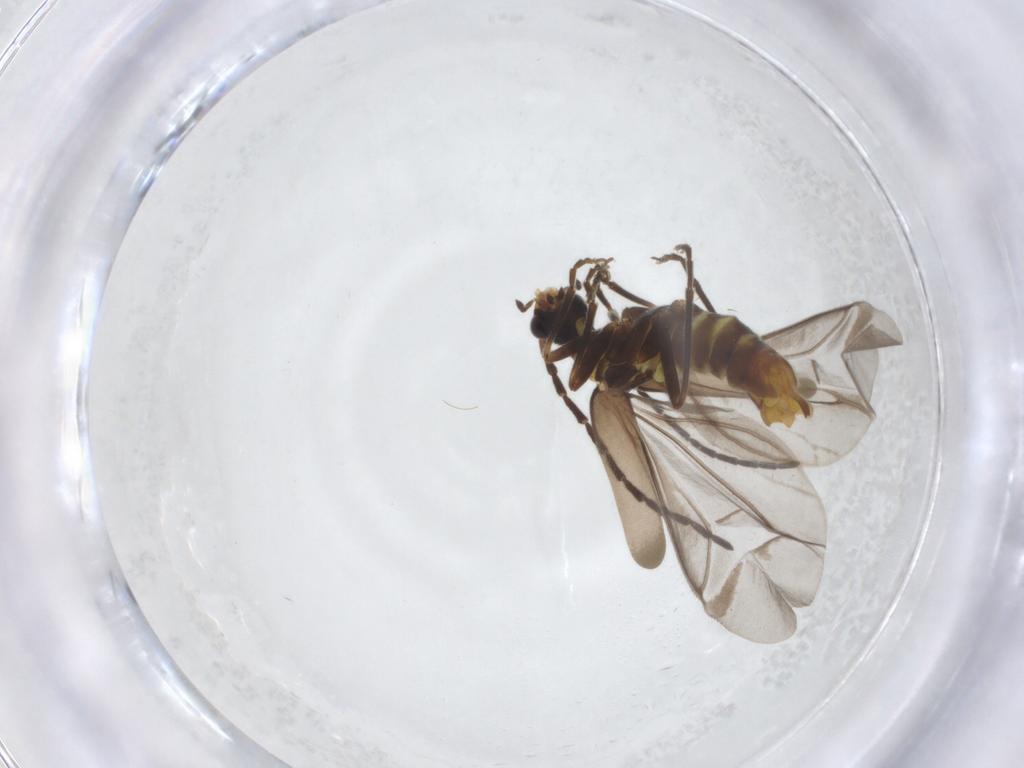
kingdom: Animalia
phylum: Arthropoda
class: Insecta
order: Coleoptera
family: Cantharidae
